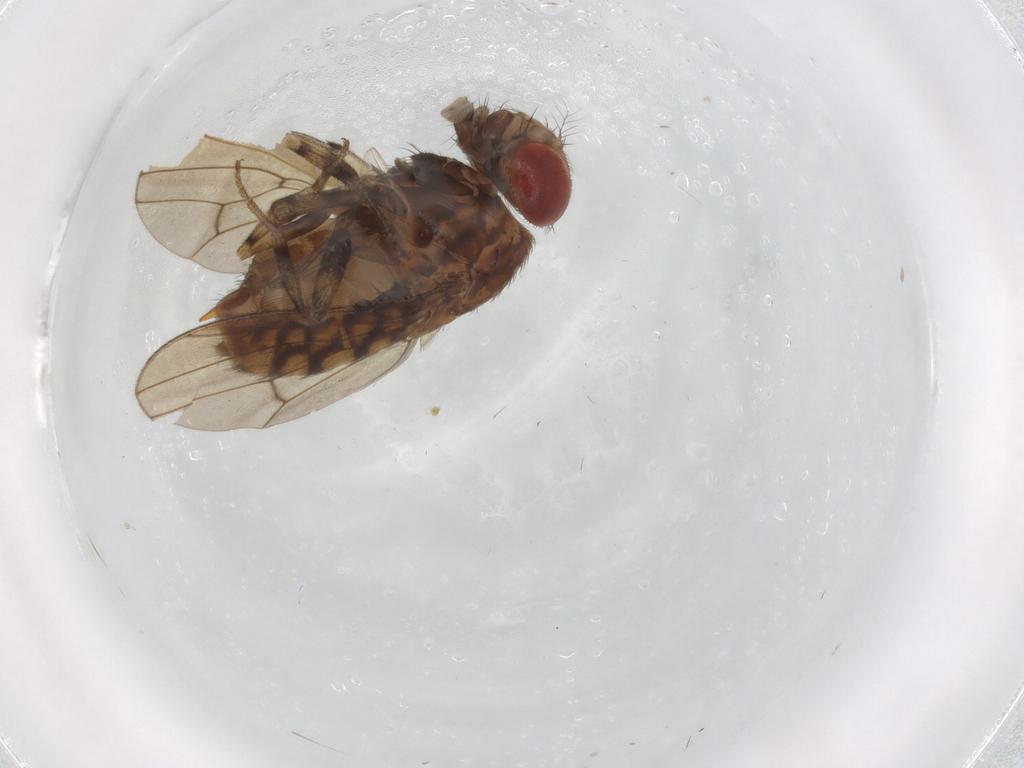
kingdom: Animalia
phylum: Arthropoda
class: Insecta
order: Diptera
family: Drosophilidae
